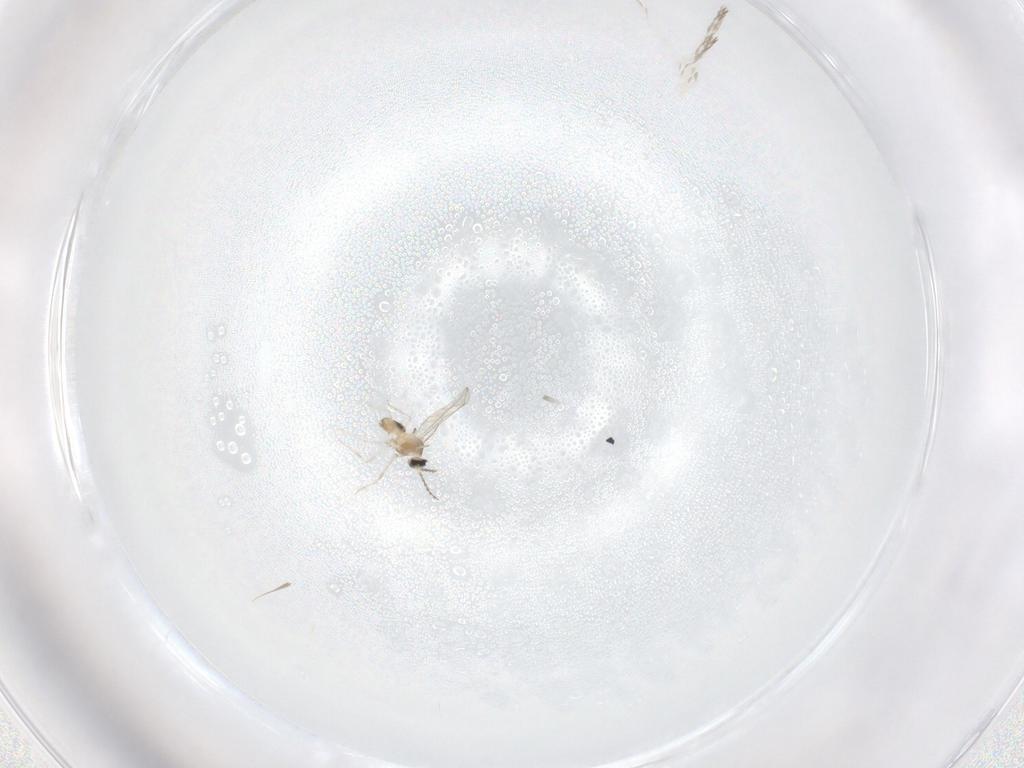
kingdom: Animalia
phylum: Arthropoda
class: Insecta
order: Diptera
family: Cecidomyiidae
